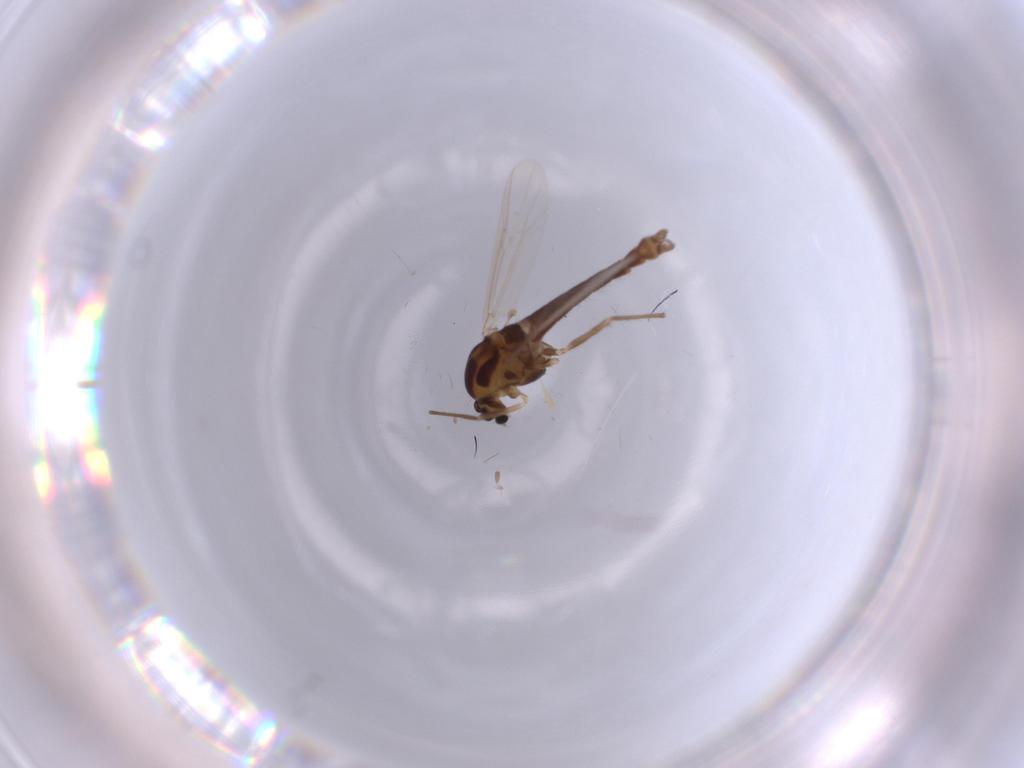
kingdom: Animalia
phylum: Arthropoda
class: Insecta
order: Diptera
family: Chironomidae
